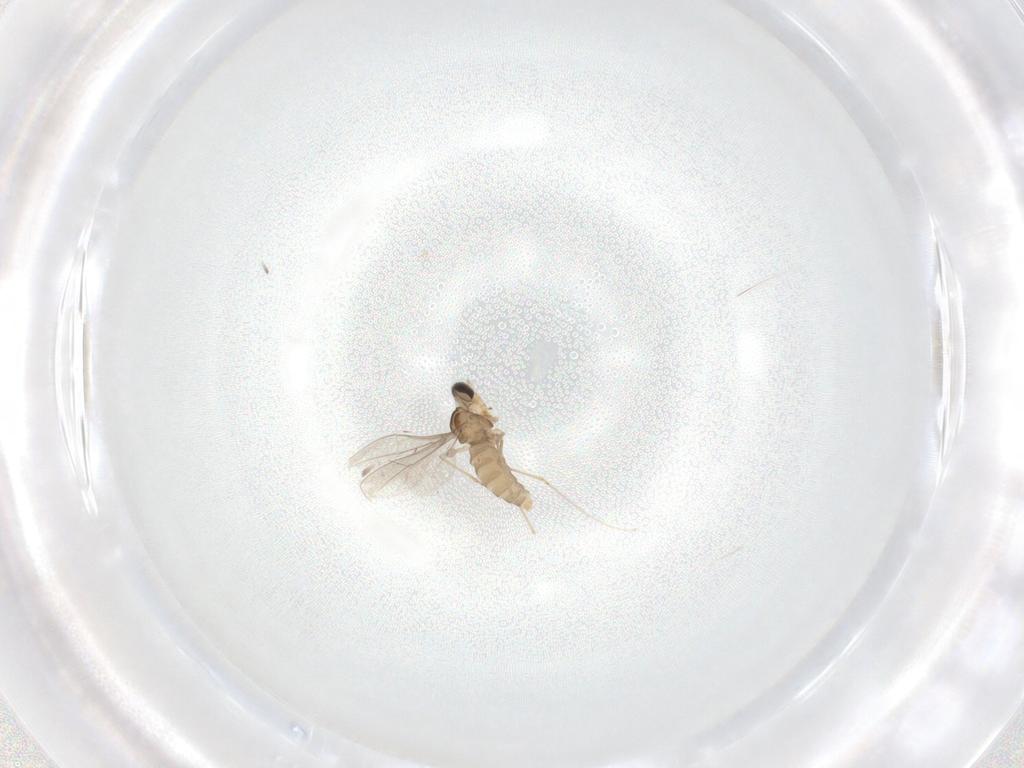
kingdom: Animalia
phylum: Arthropoda
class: Insecta
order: Diptera
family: Cecidomyiidae
